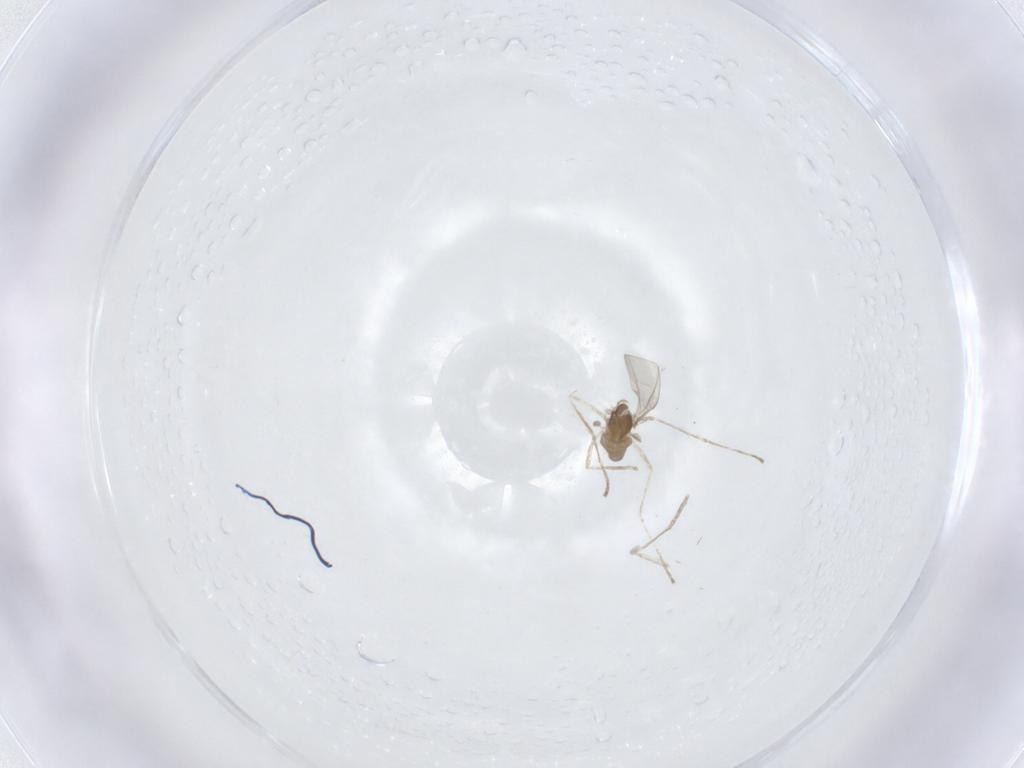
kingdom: Animalia
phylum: Arthropoda
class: Insecta
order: Diptera
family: Cecidomyiidae
